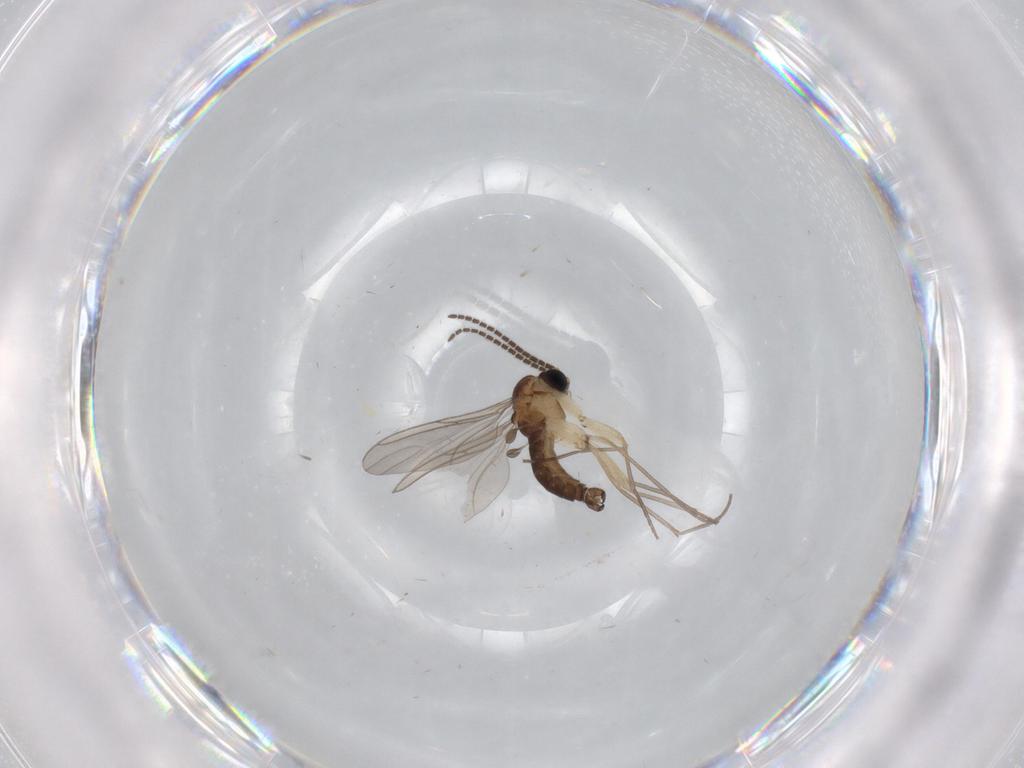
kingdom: Animalia
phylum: Arthropoda
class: Insecta
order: Diptera
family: Sciaridae
